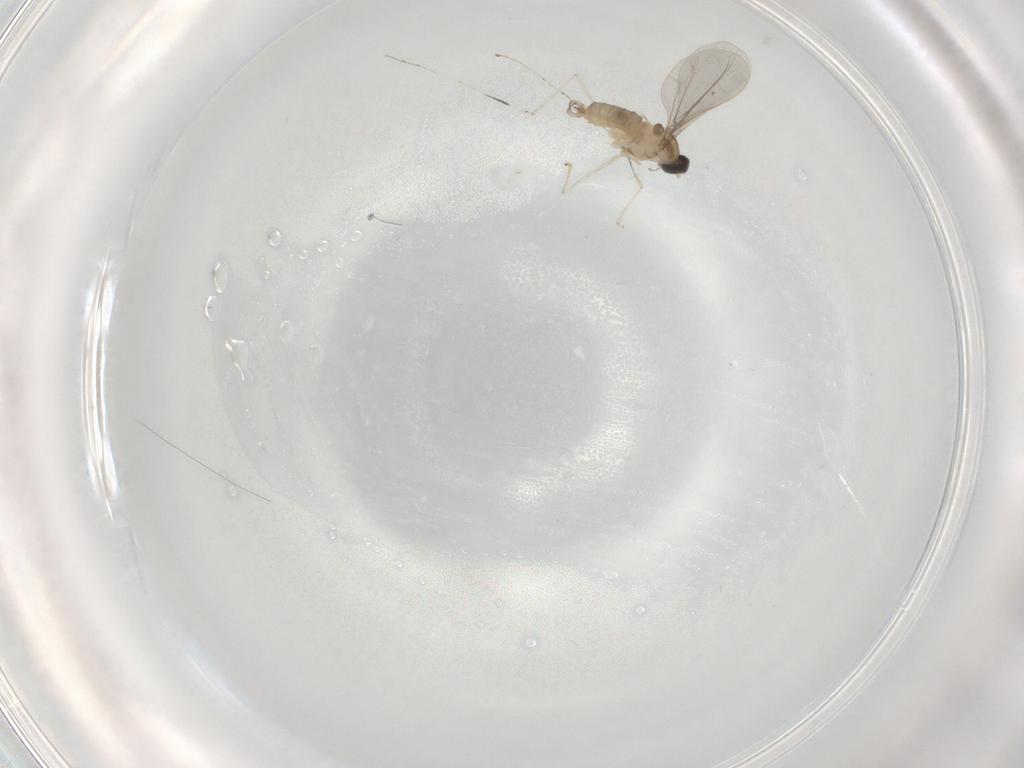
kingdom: Animalia
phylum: Arthropoda
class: Insecta
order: Diptera
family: Cecidomyiidae
